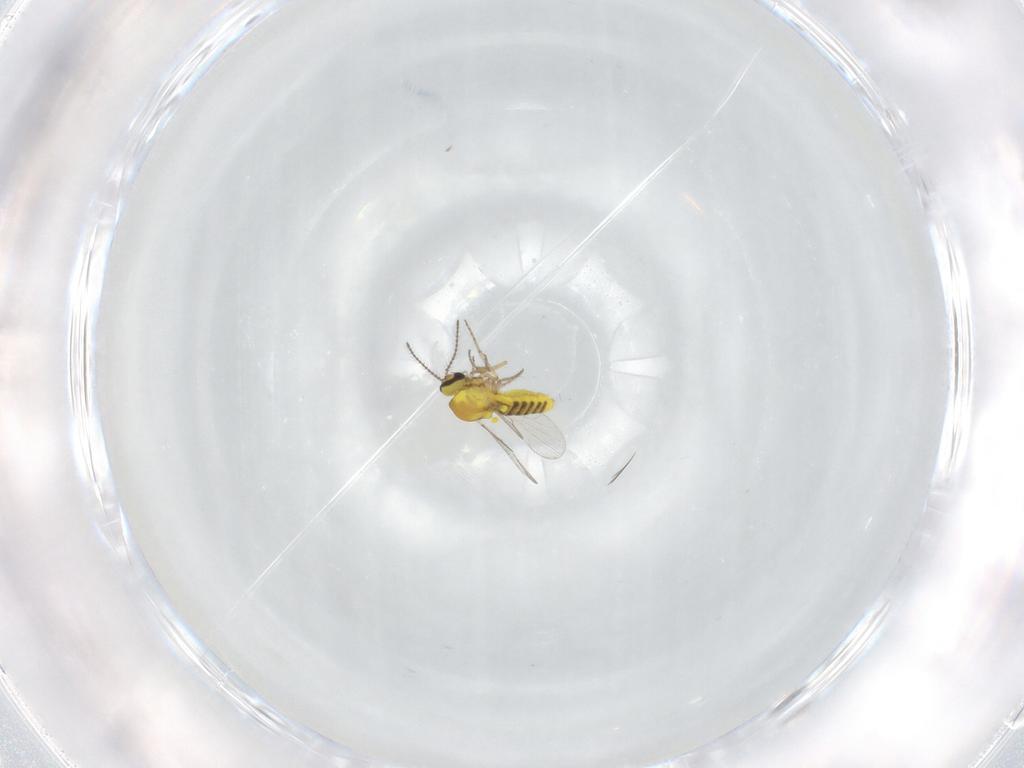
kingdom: Animalia
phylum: Arthropoda
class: Insecta
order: Diptera
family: Ceratopogonidae
